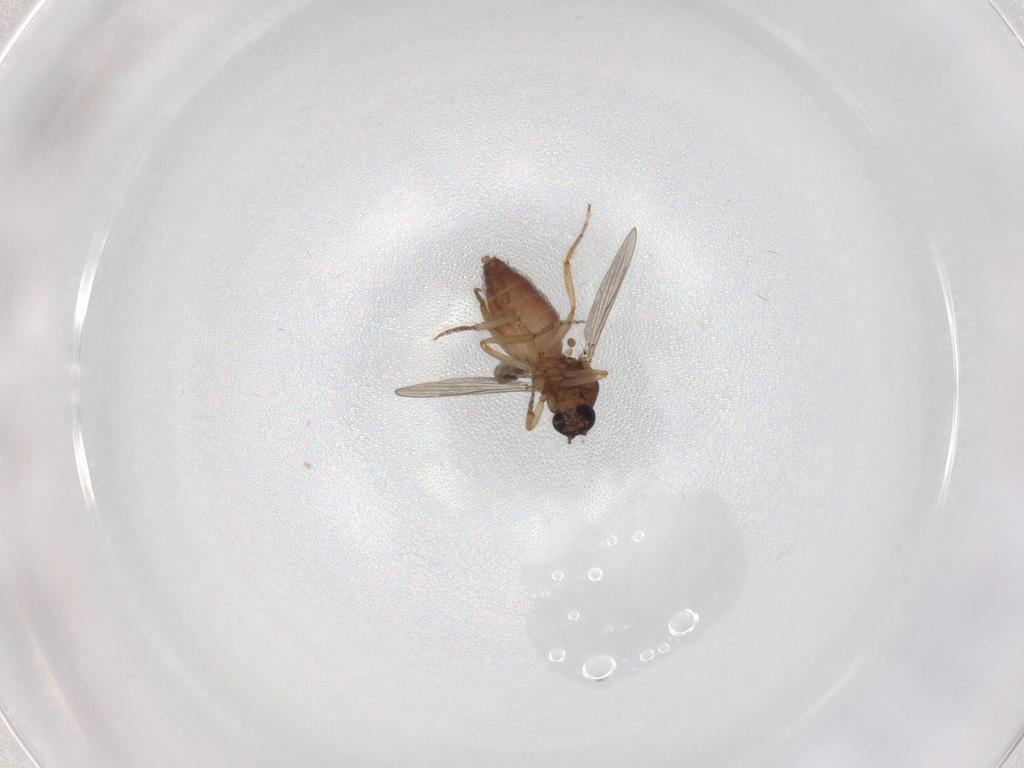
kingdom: Animalia
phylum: Arthropoda
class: Insecta
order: Diptera
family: Ceratopogonidae
